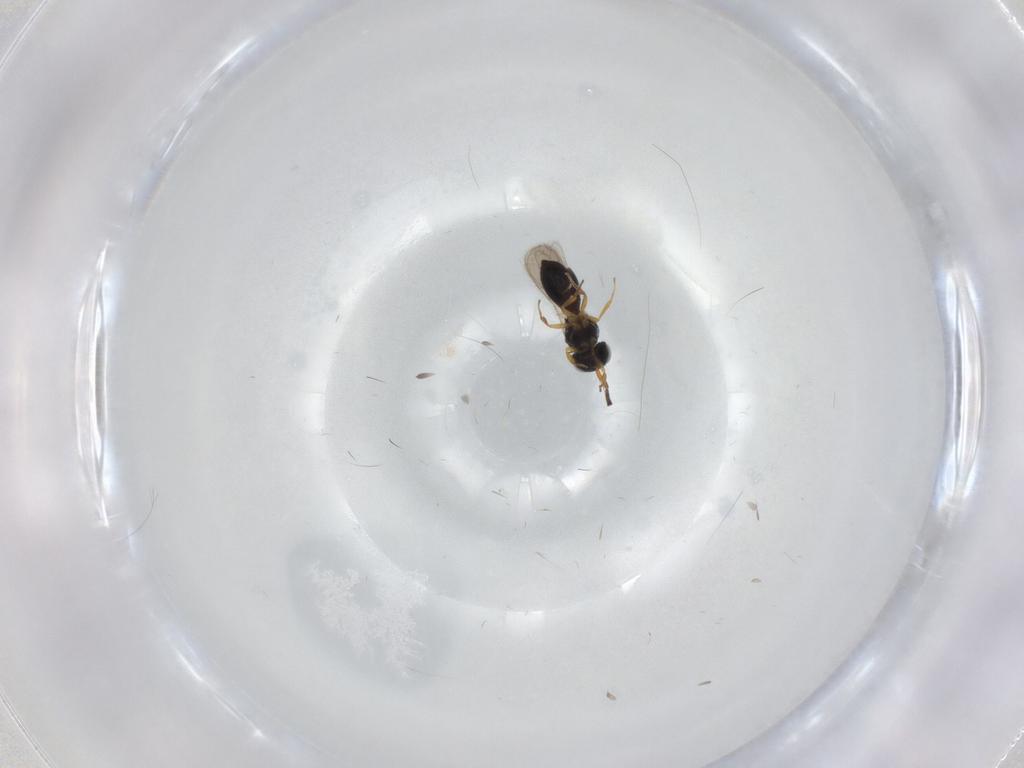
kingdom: Animalia
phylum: Arthropoda
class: Insecta
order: Hymenoptera
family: Scelionidae
